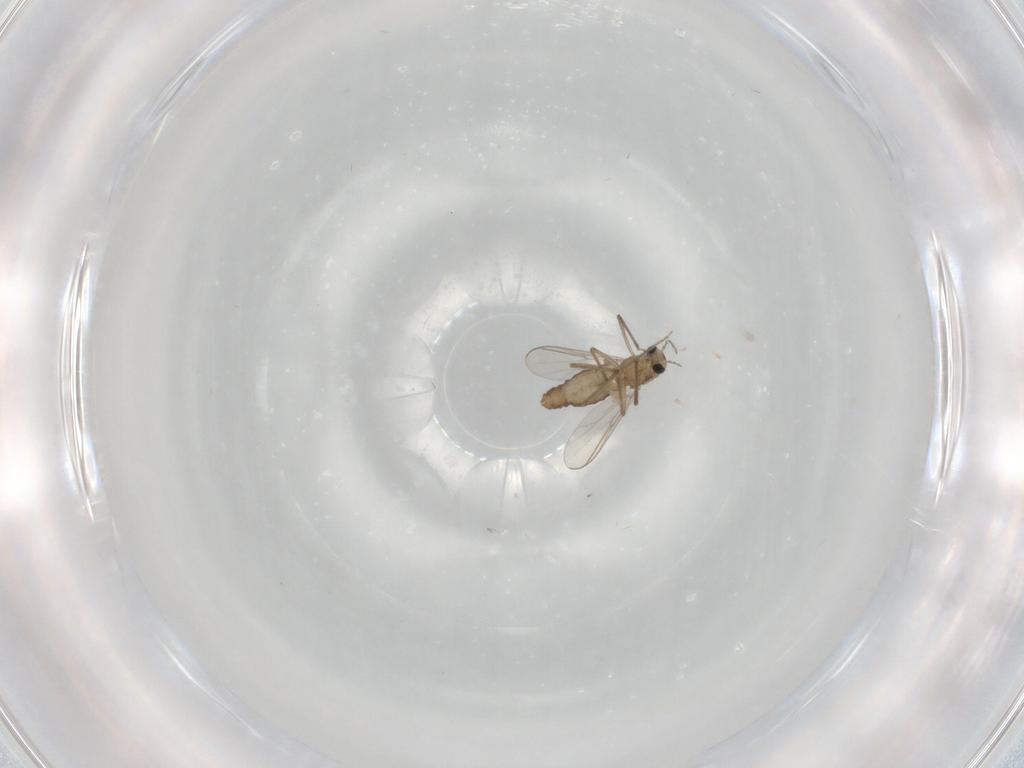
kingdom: Animalia
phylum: Arthropoda
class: Insecta
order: Diptera
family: Chironomidae
